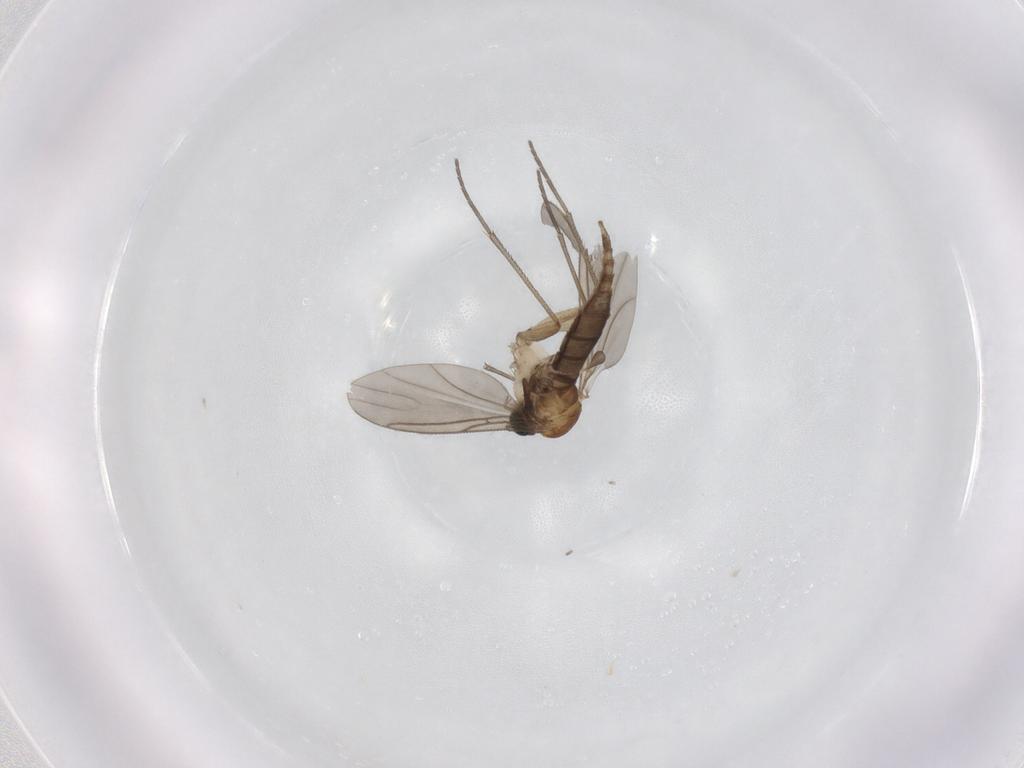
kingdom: Animalia
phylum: Arthropoda
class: Insecta
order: Diptera
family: Sciaridae
